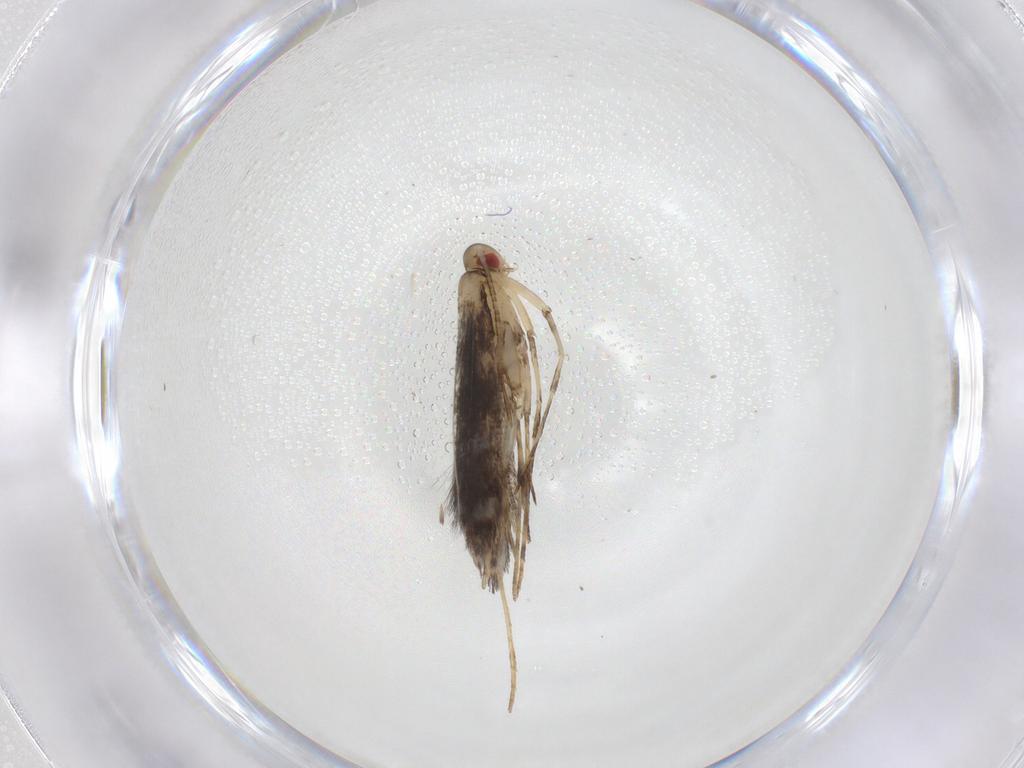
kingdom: Animalia
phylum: Arthropoda
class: Insecta
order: Lepidoptera
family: Gracillariidae
